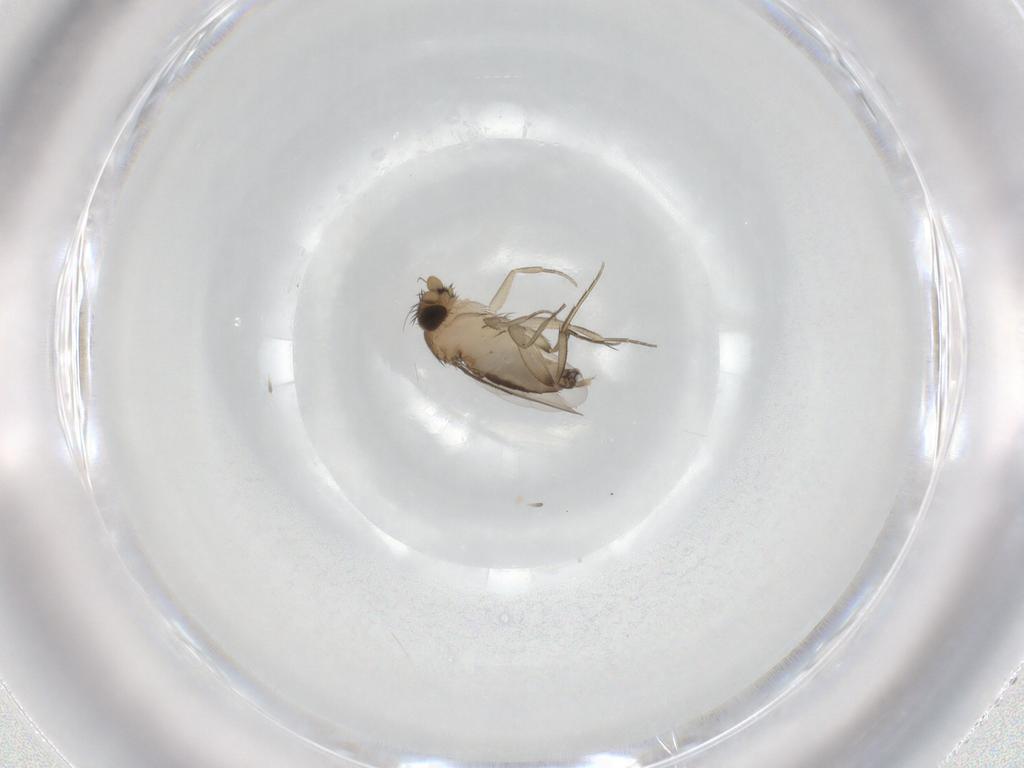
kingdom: Animalia
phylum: Arthropoda
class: Insecta
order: Diptera
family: Phoridae
